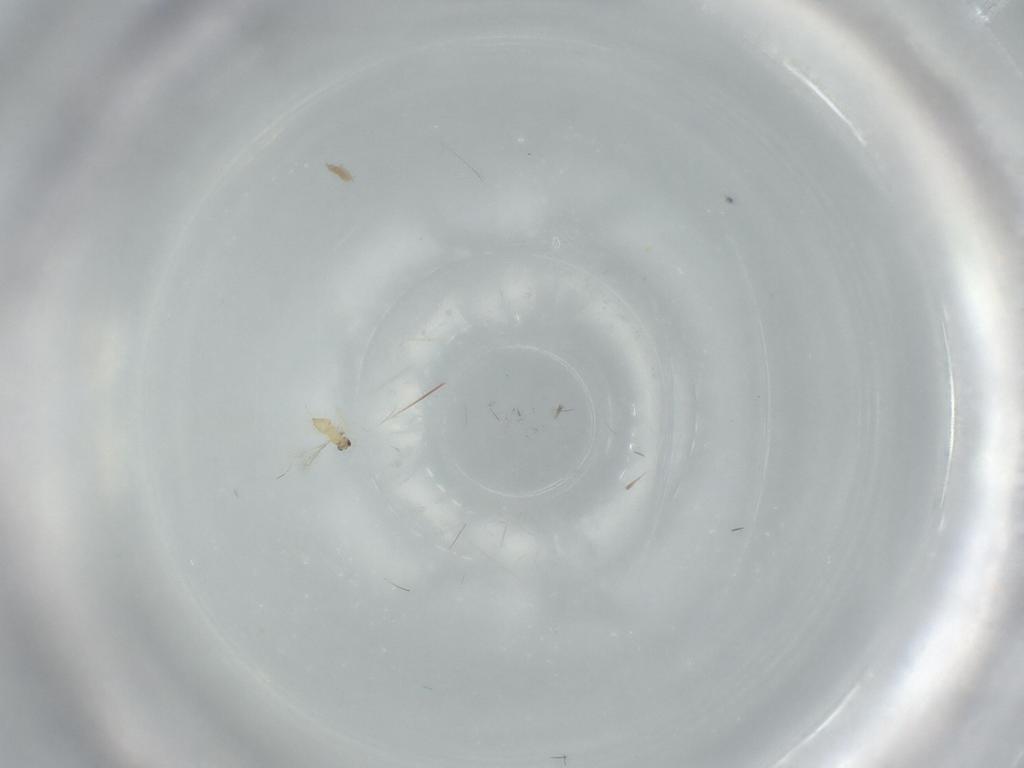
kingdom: Animalia
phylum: Arthropoda
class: Insecta
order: Hymenoptera
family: Mymaridae
